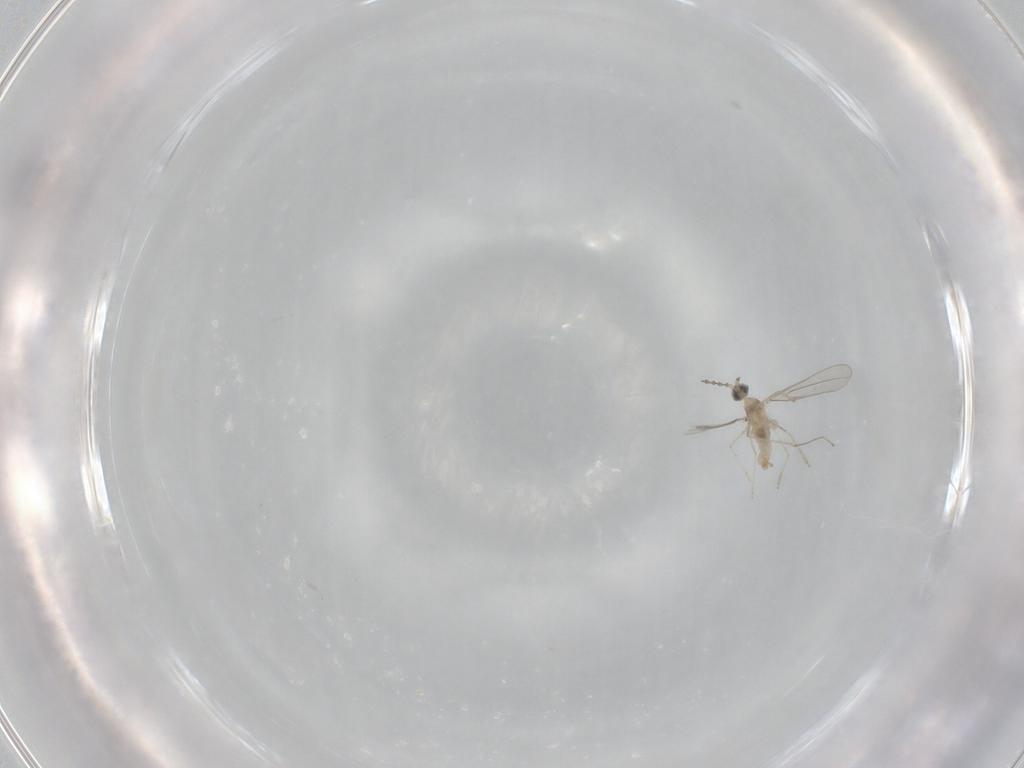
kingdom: Animalia
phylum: Arthropoda
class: Insecta
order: Diptera
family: Cecidomyiidae
